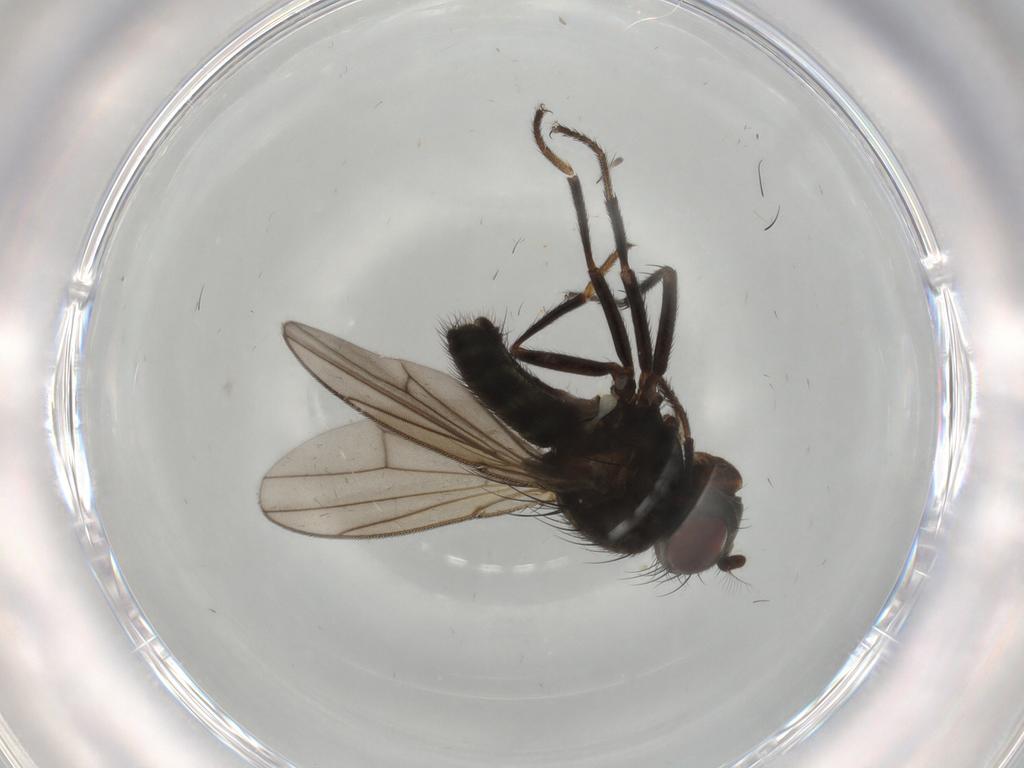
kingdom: Animalia
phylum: Arthropoda
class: Insecta
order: Diptera
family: Ephydridae
